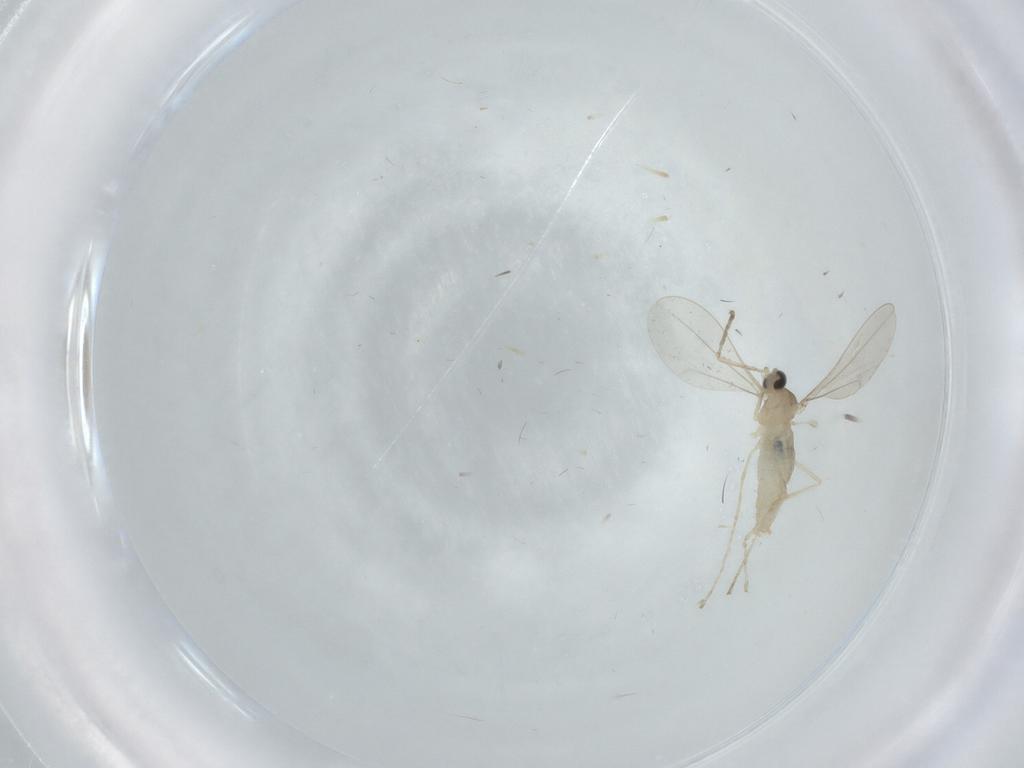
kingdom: Animalia
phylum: Arthropoda
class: Insecta
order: Diptera
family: Cecidomyiidae
